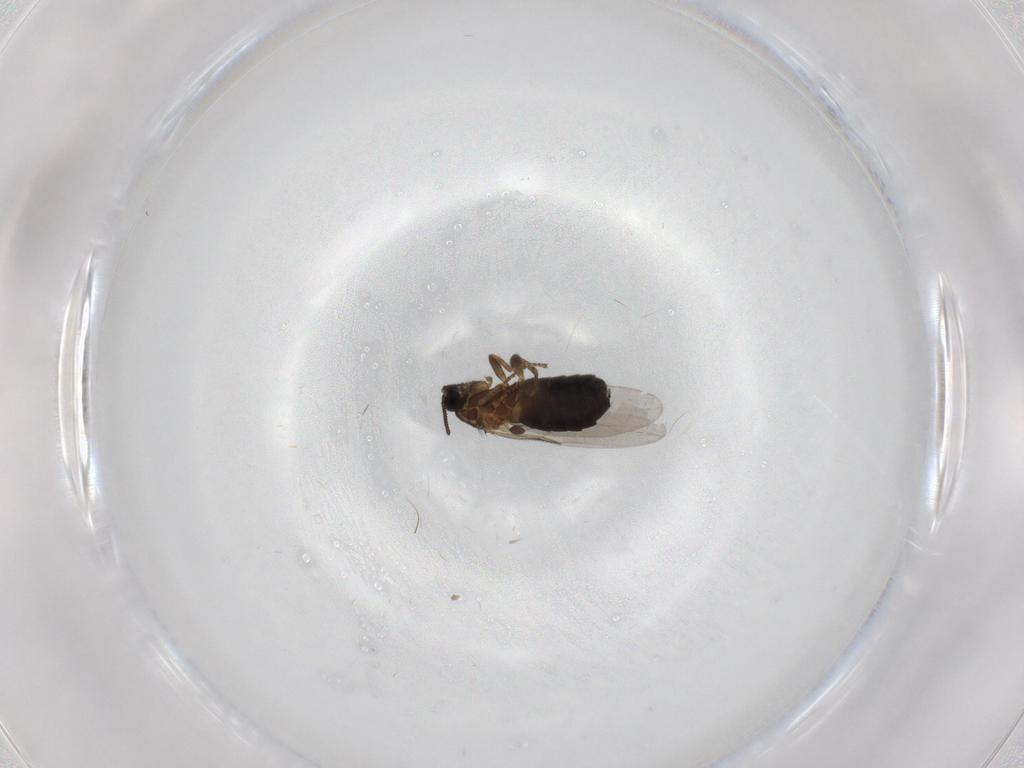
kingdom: Animalia
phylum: Arthropoda
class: Insecta
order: Diptera
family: Scatopsidae
